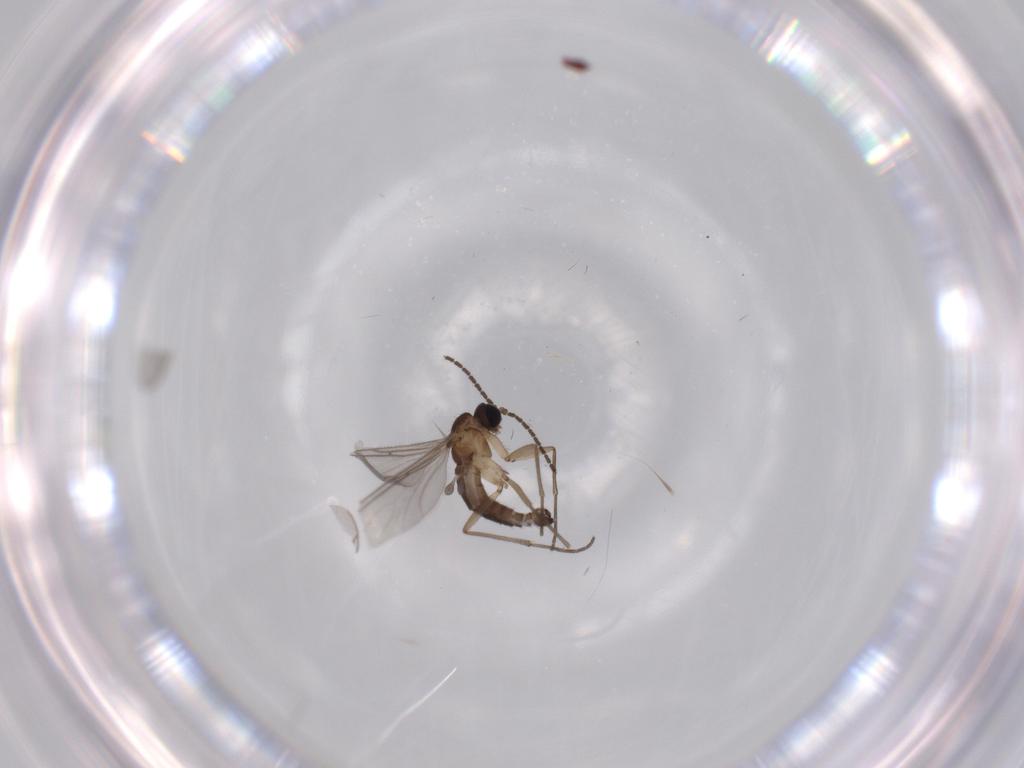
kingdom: Animalia
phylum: Arthropoda
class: Insecta
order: Diptera
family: Sciaridae
